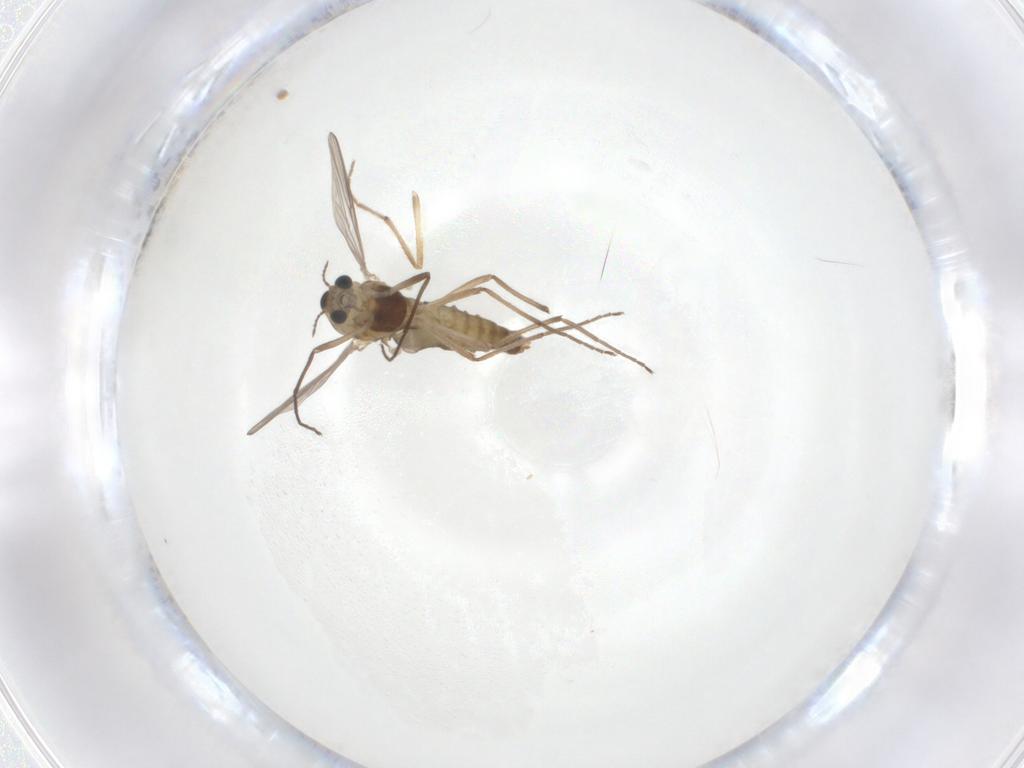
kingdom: Animalia
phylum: Arthropoda
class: Insecta
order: Diptera
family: Chironomidae
